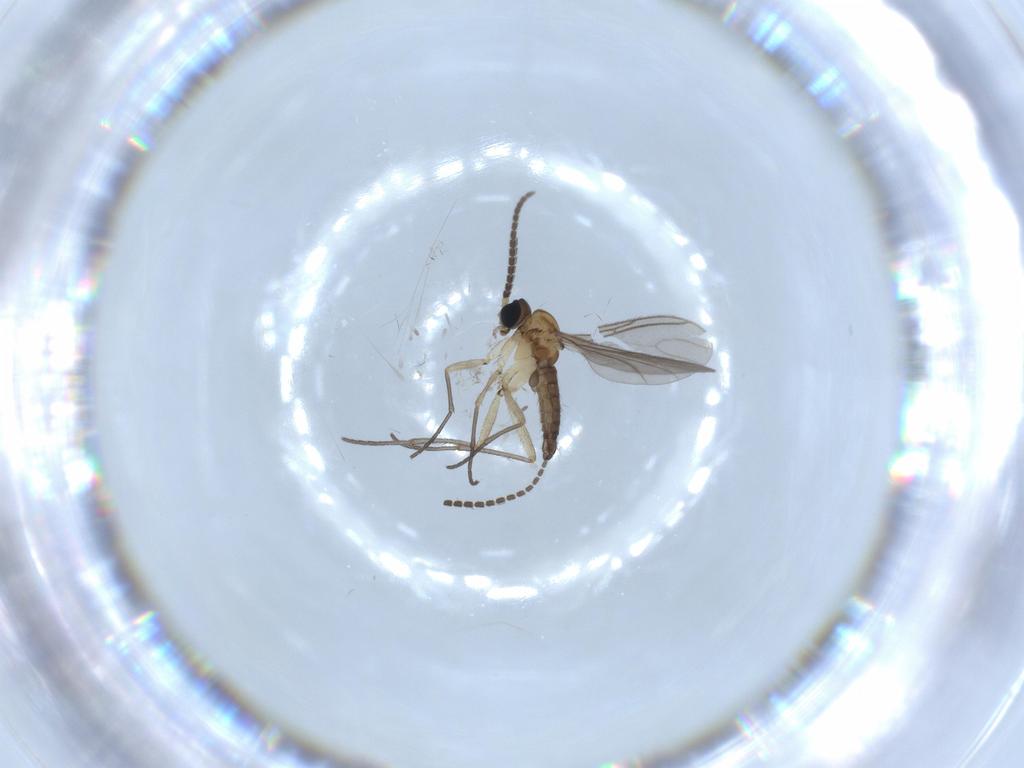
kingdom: Animalia
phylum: Arthropoda
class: Insecta
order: Diptera
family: Sciaridae
